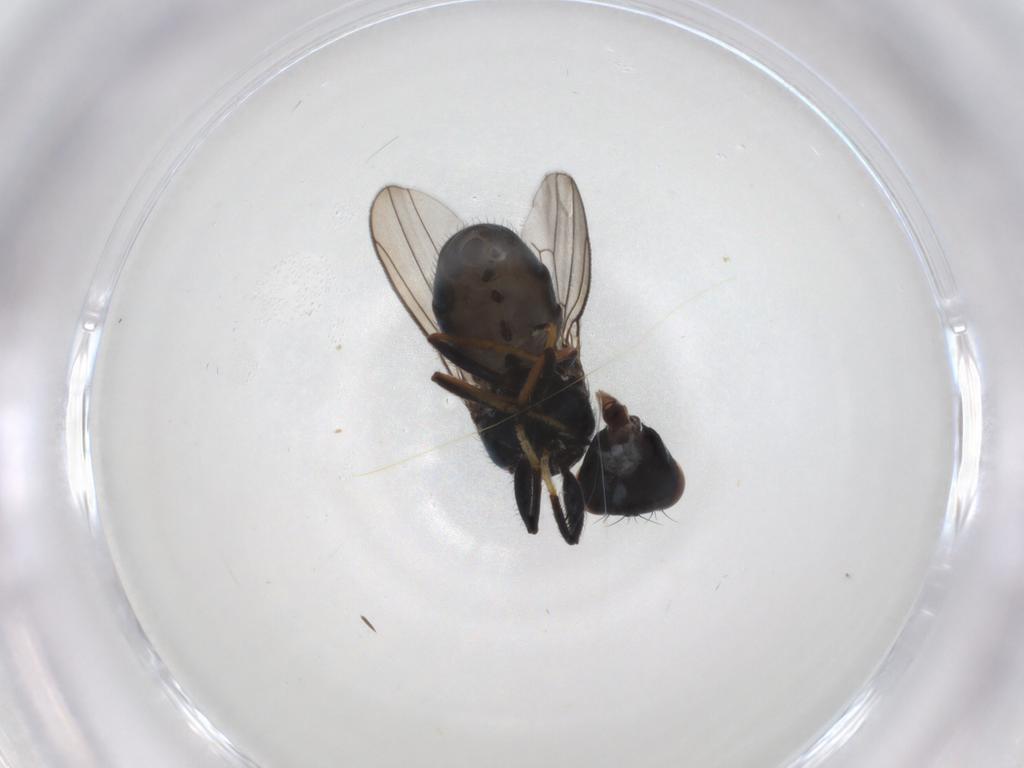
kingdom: Animalia
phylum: Arthropoda
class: Insecta
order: Diptera
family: Ephydridae
